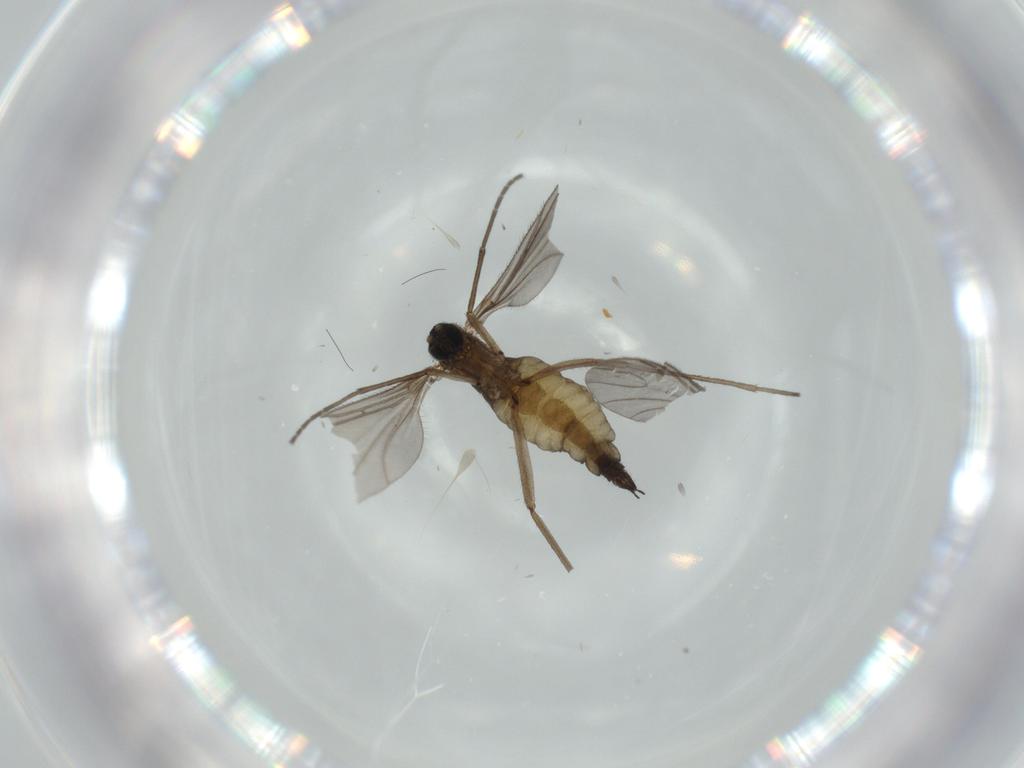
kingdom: Animalia
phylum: Arthropoda
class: Insecta
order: Diptera
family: Sciaridae
